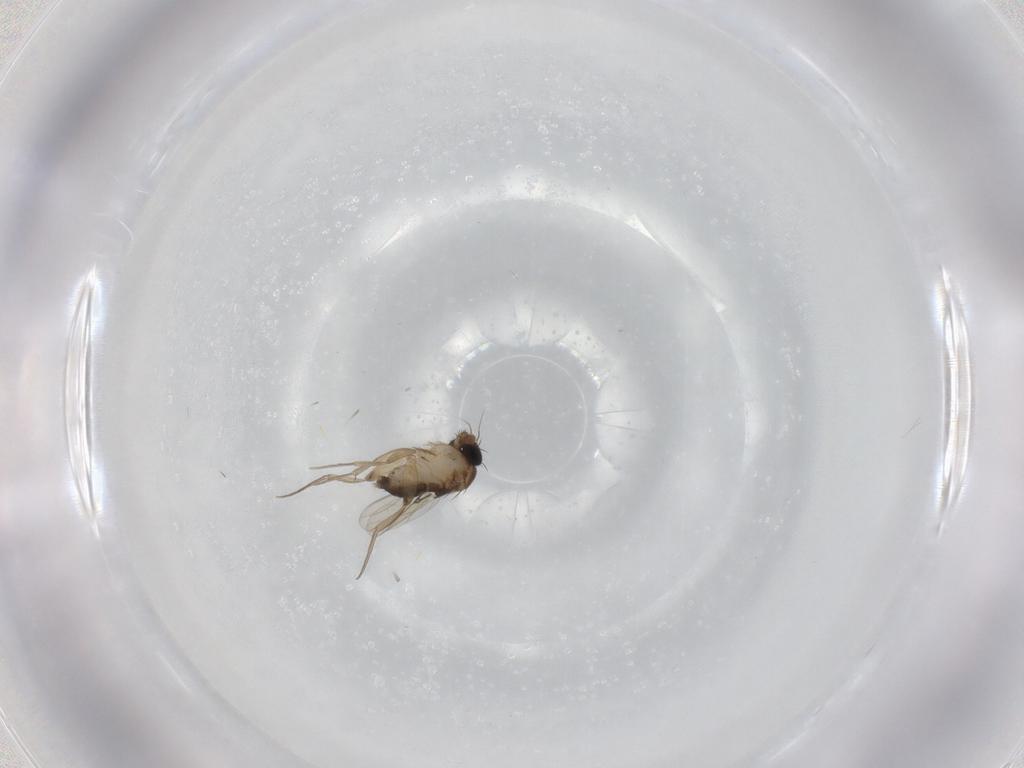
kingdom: Animalia
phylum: Arthropoda
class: Insecta
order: Diptera
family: Phoridae
